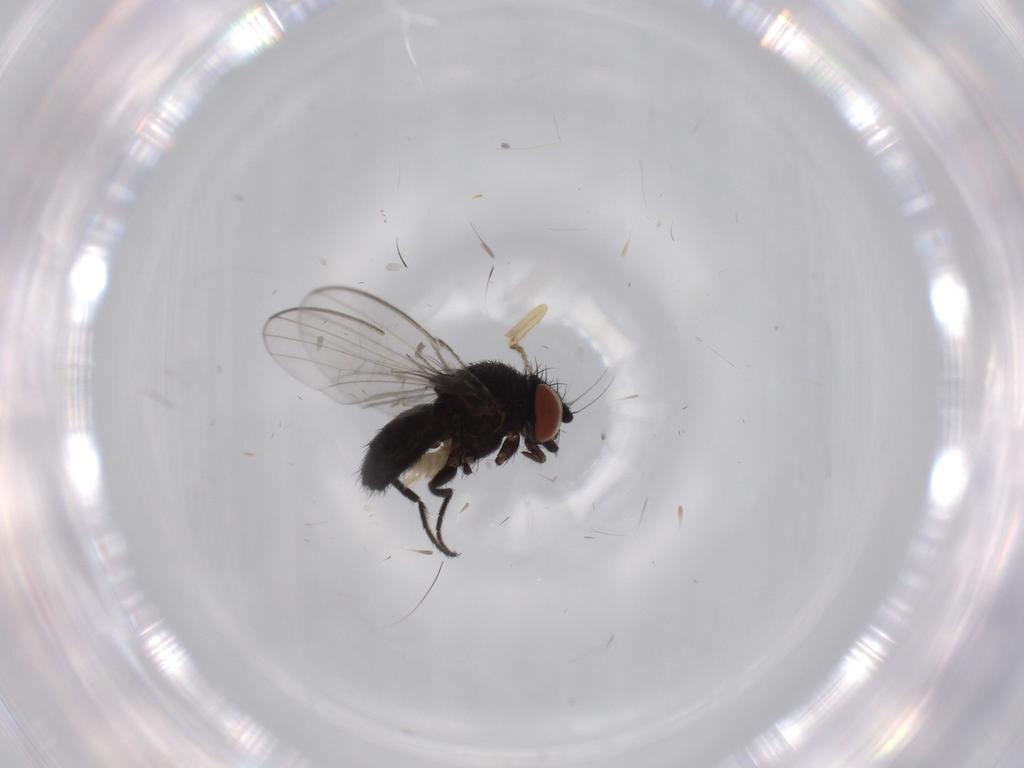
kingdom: Animalia
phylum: Arthropoda
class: Insecta
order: Diptera
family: Milichiidae
